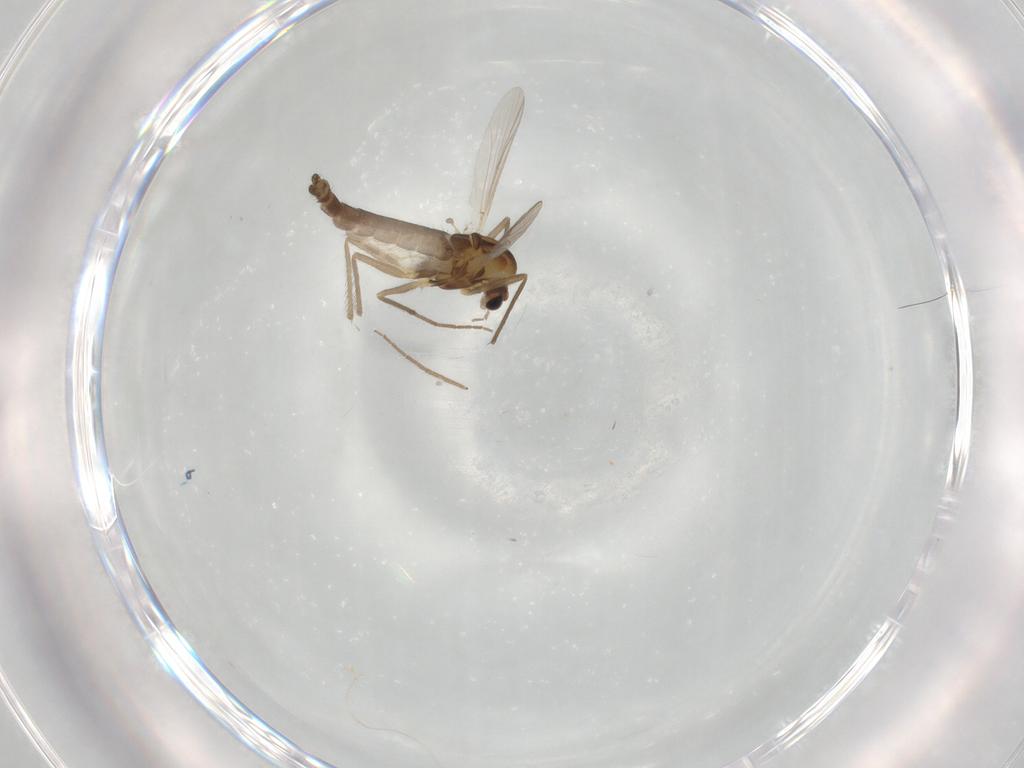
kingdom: Animalia
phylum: Arthropoda
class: Insecta
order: Diptera
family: Chironomidae
